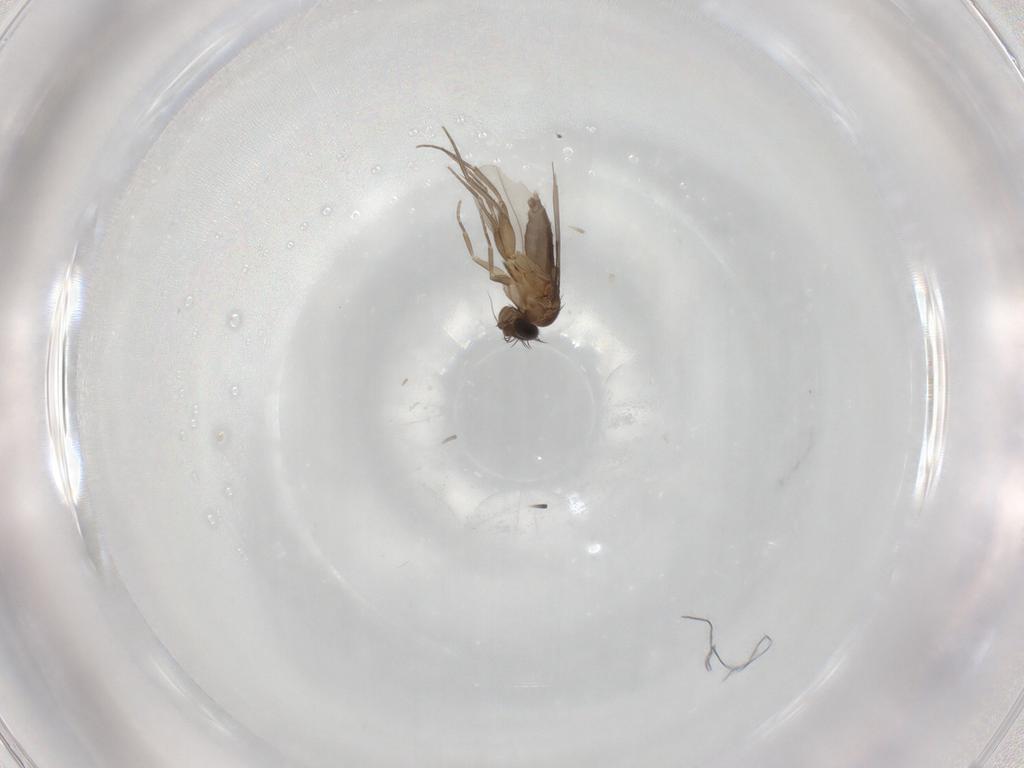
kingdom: Animalia
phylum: Arthropoda
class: Insecta
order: Diptera
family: Phoridae
